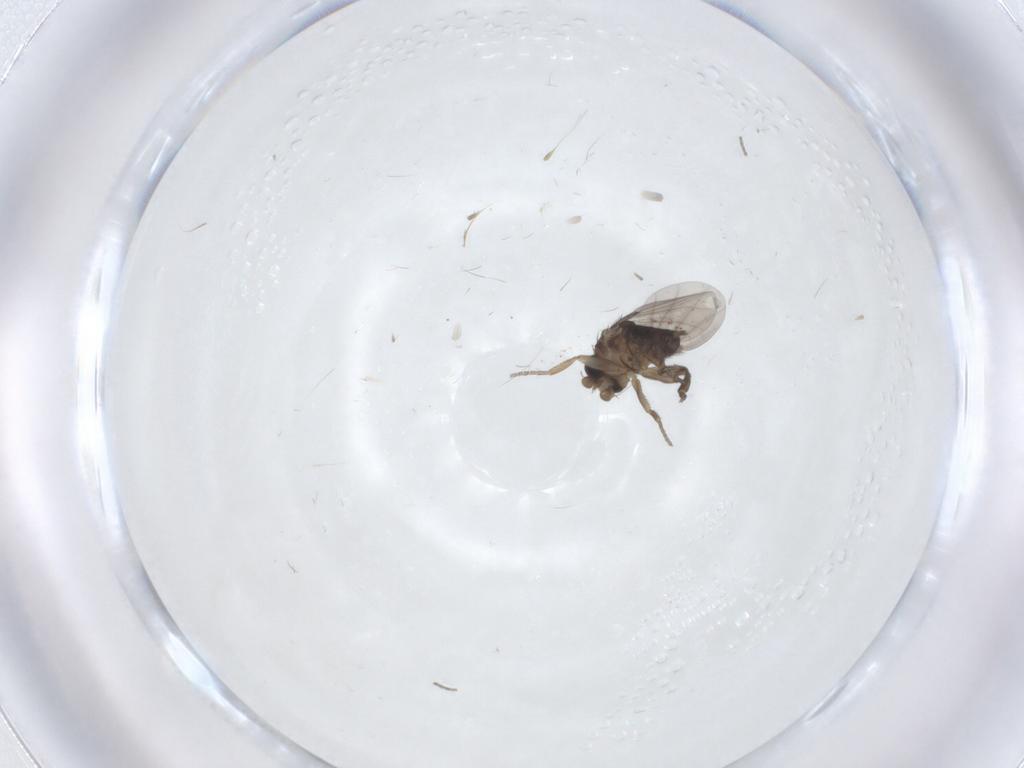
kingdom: Animalia
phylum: Arthropoda
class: Insecta
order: Diptera
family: Phoridae
